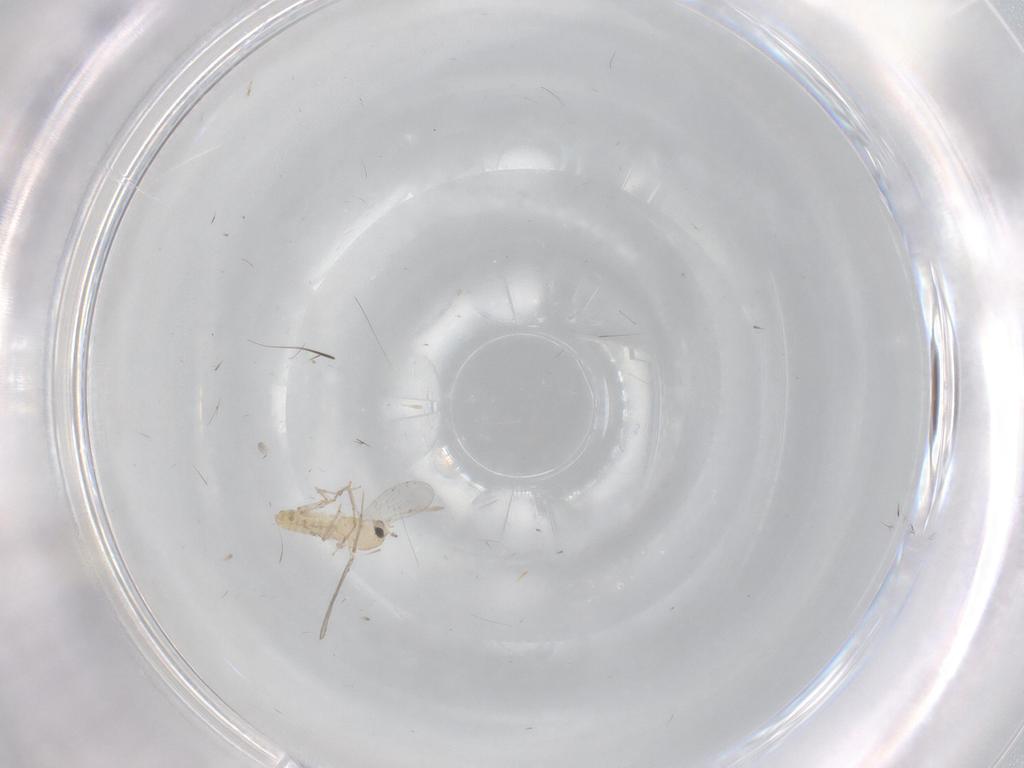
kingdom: Animalia
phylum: Arthropoda
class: Insecta
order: Diptera
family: Chironomidae
